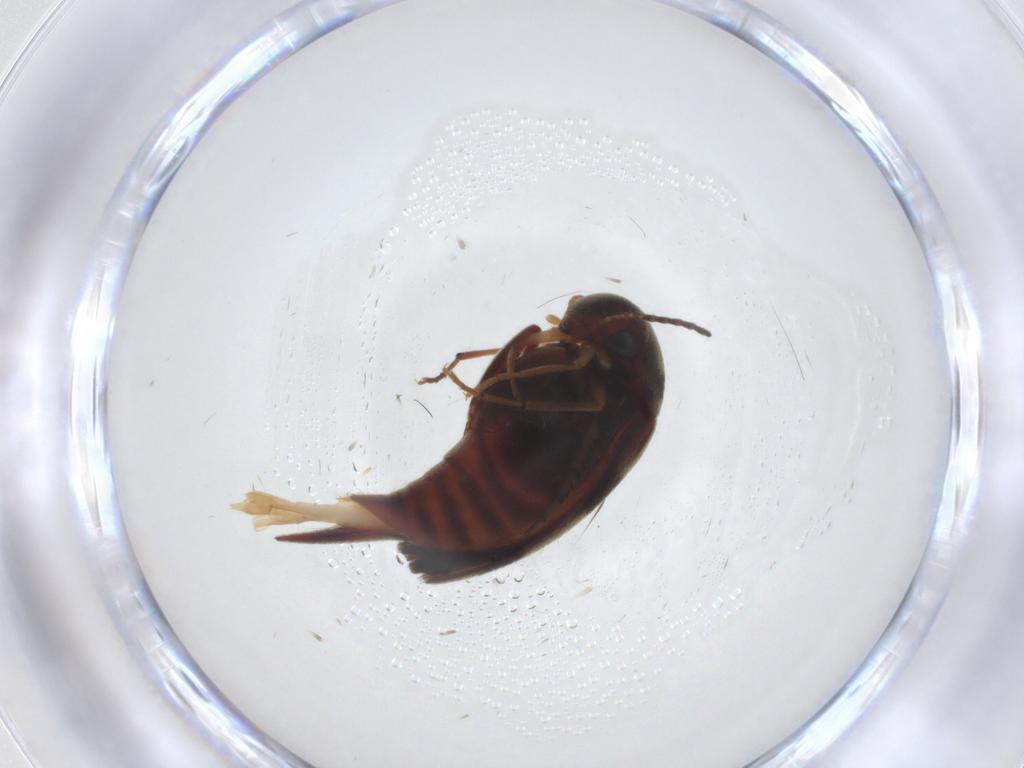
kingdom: Animalia
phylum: Arthropoda
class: Insecta
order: Coleoptera
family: Mordellidae
